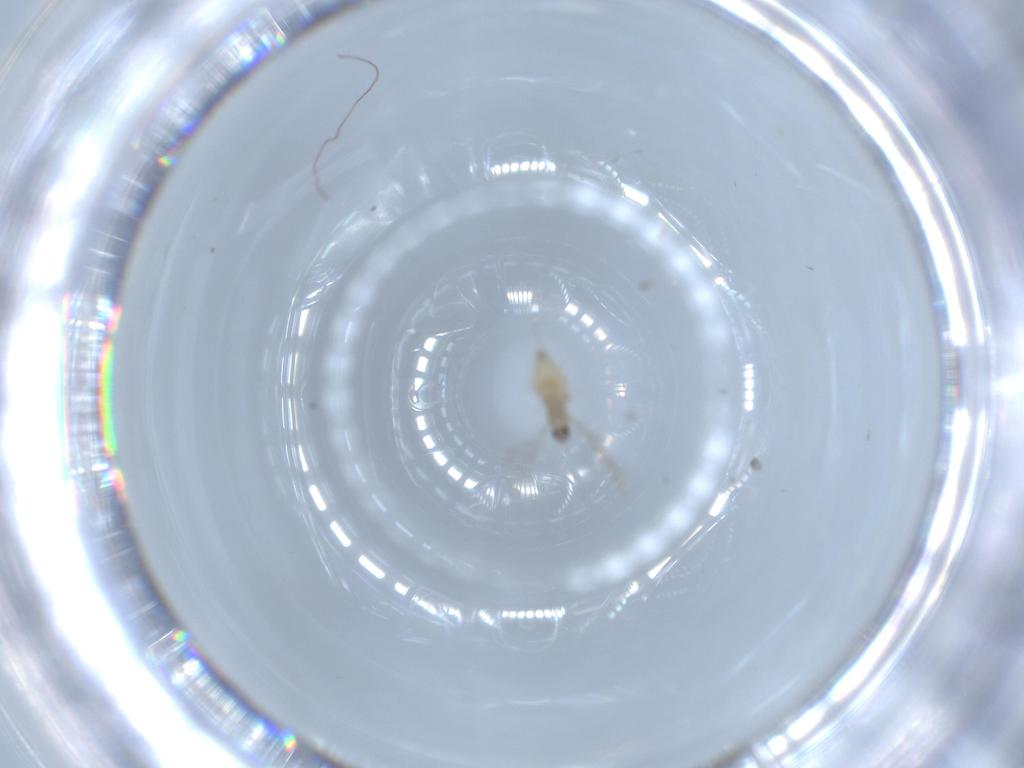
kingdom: Animalia
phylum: Arthropoda
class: Insecta
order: Diptera
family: Cecidomyiidae
